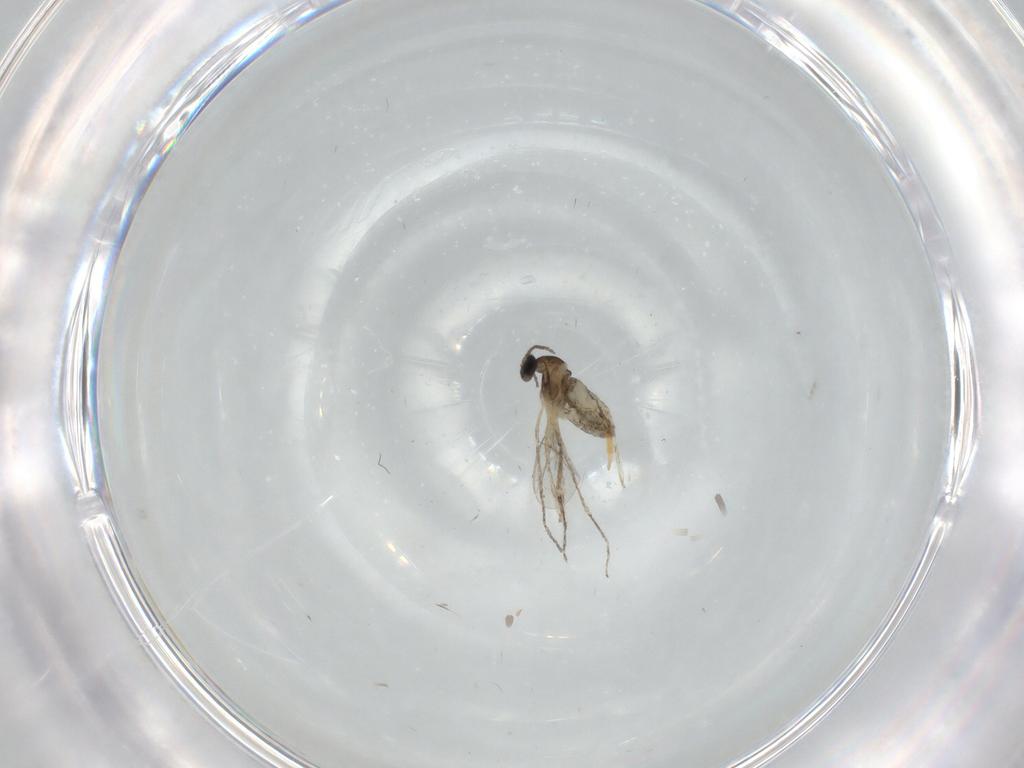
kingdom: Animalia
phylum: Arthropoda
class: Insecta
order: Diptera
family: Cecidomyiidae
